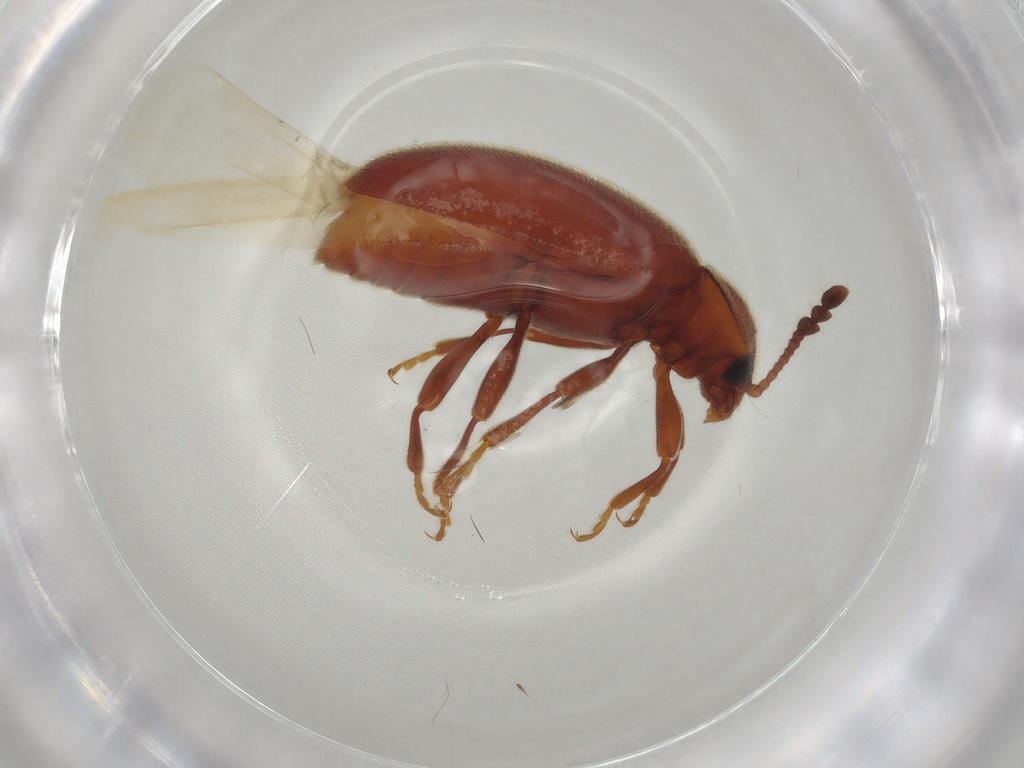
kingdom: Animalia
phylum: Arthropoda
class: Insecta
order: Coleoptera
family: Endomychidae
